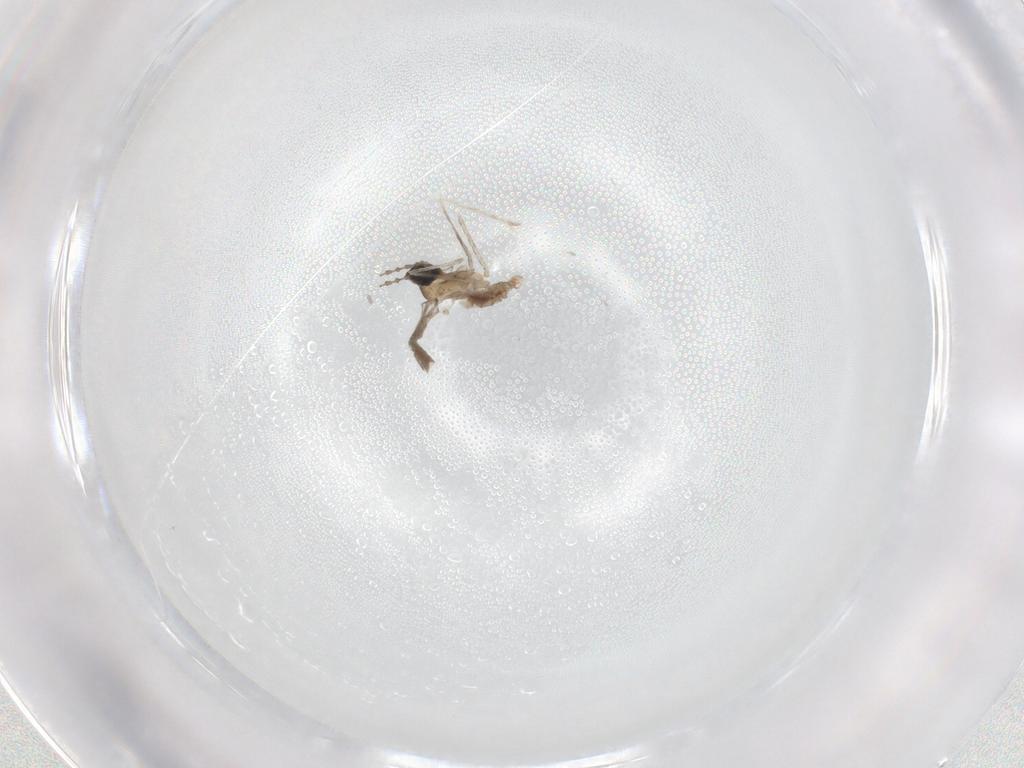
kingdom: Animalia
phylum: Arthropoda
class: Insecta
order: Diptera
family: Cecidomyiidae
